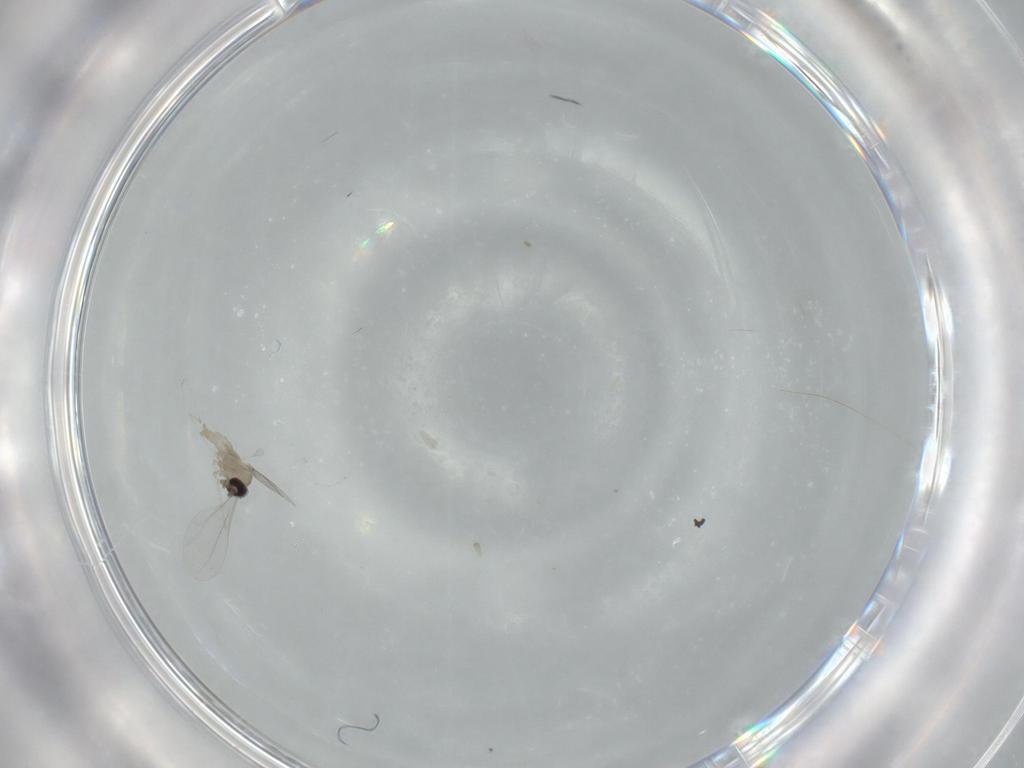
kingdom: Animalia
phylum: Arthropoda
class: Insecta
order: Diptera
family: Cecidomyiidae
